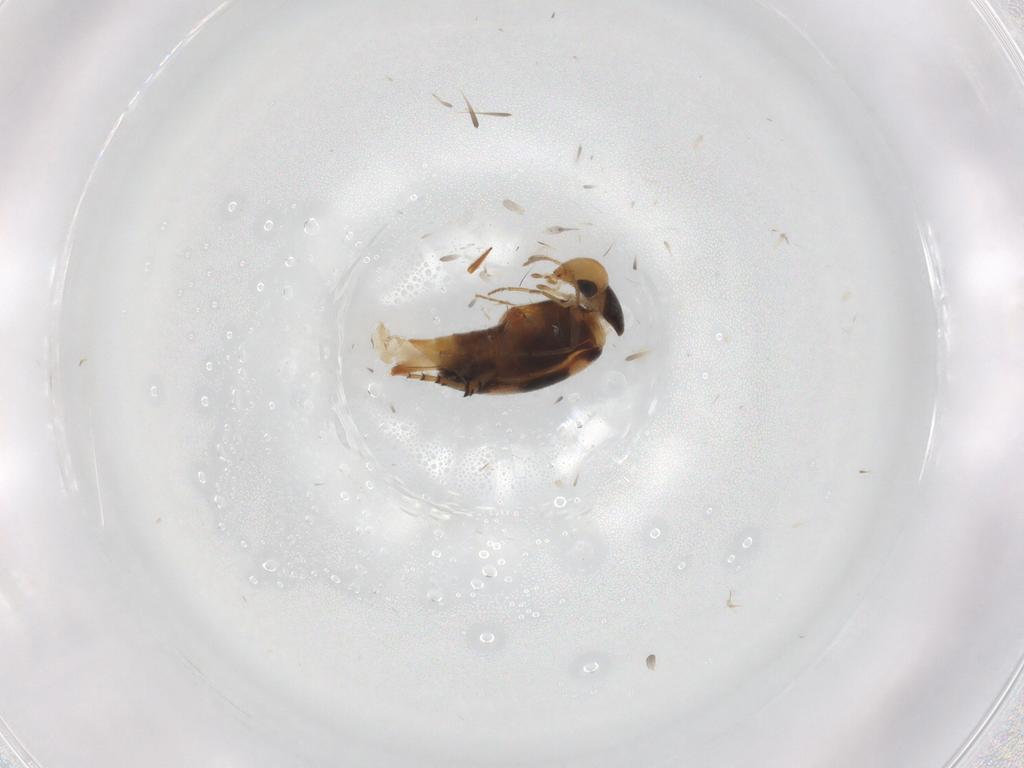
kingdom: Animalia
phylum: Arthropoda
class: Insecta
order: Coleoptera
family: Mordellidae
